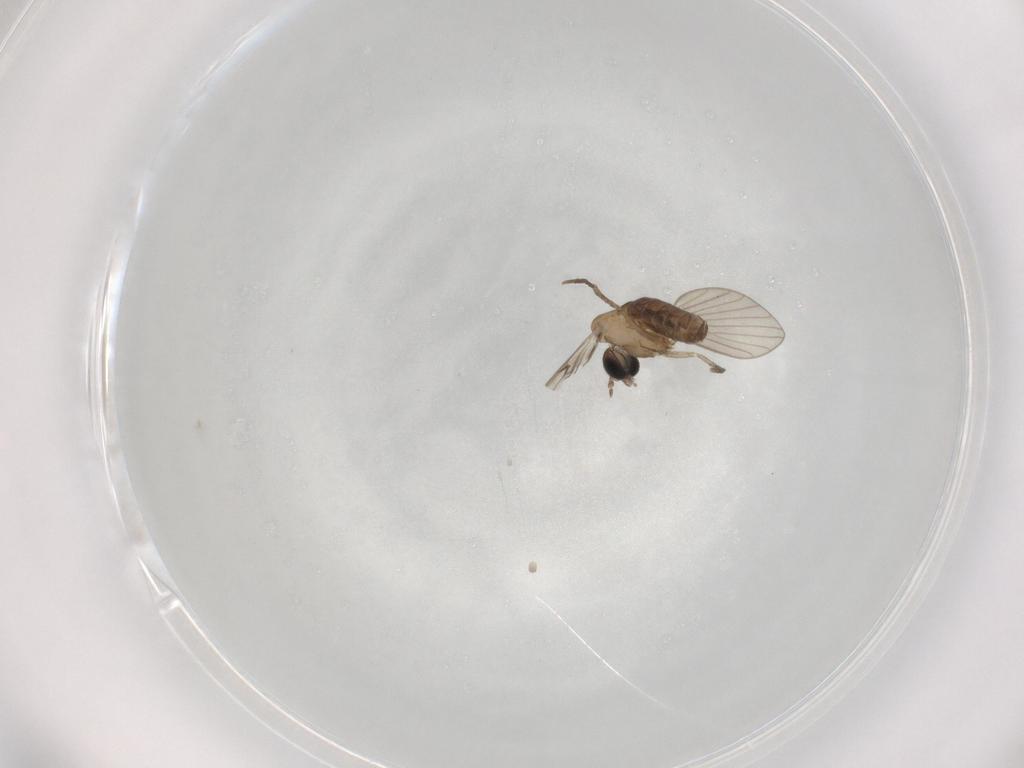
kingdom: Animalia
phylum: Arthropoda
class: Insecta
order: Diptera
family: Psychodidae
